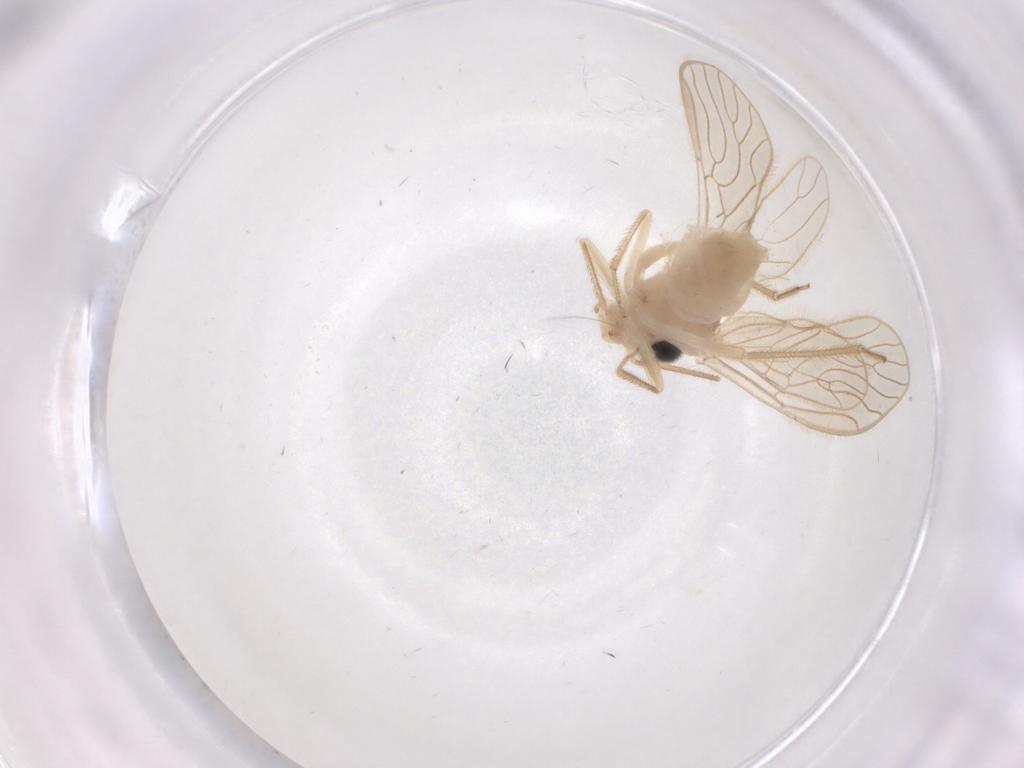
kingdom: Animalia
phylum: Arthropoda
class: Insecta
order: Psocodea
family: Cladiopsocidae
